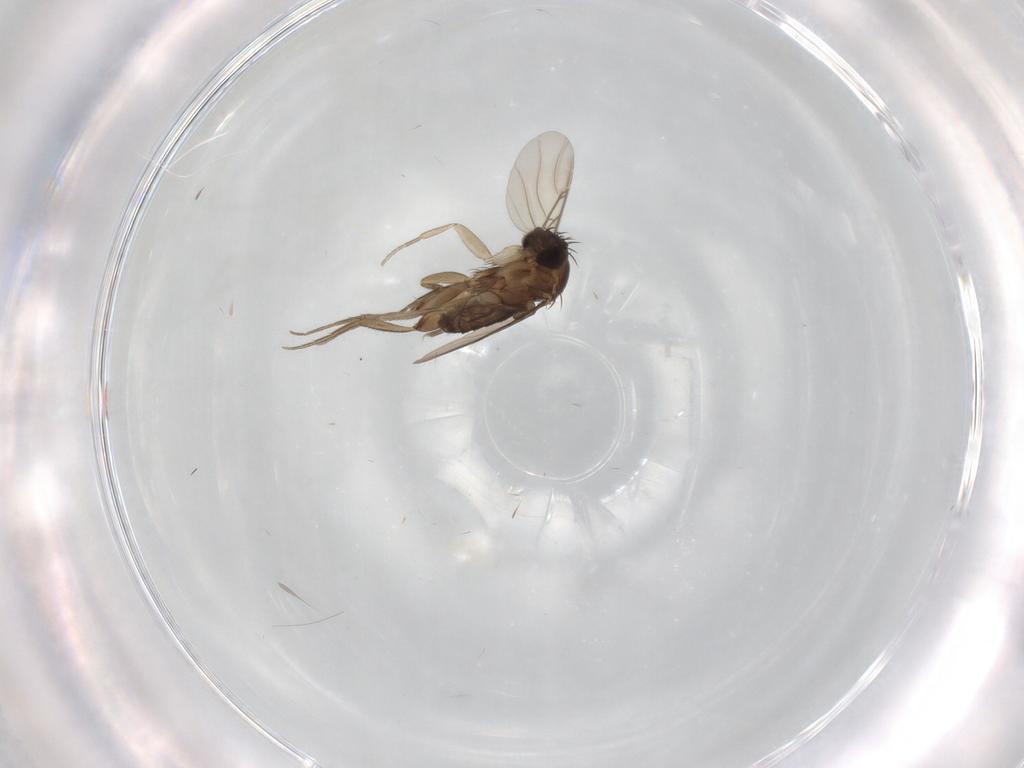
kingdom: Animalia
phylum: Arthropoda
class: Insecta
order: Diptera
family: Phoridae
